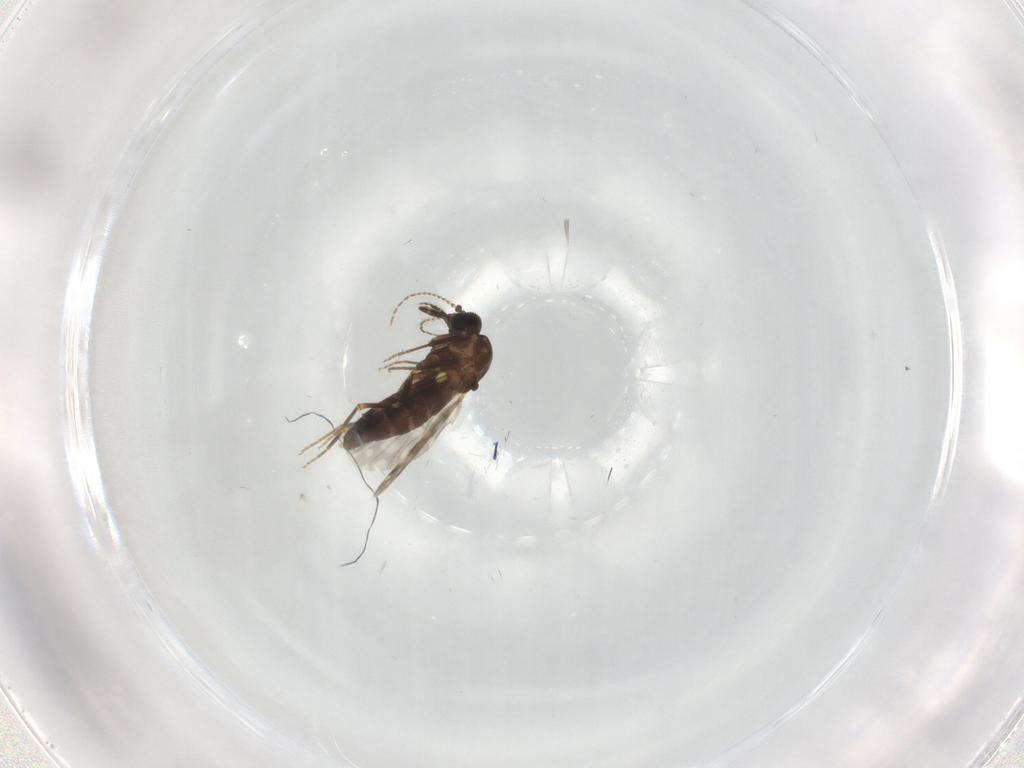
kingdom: Animalia
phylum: Arthropoda
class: Insecta
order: Diptera
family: Ceratopogonidae
